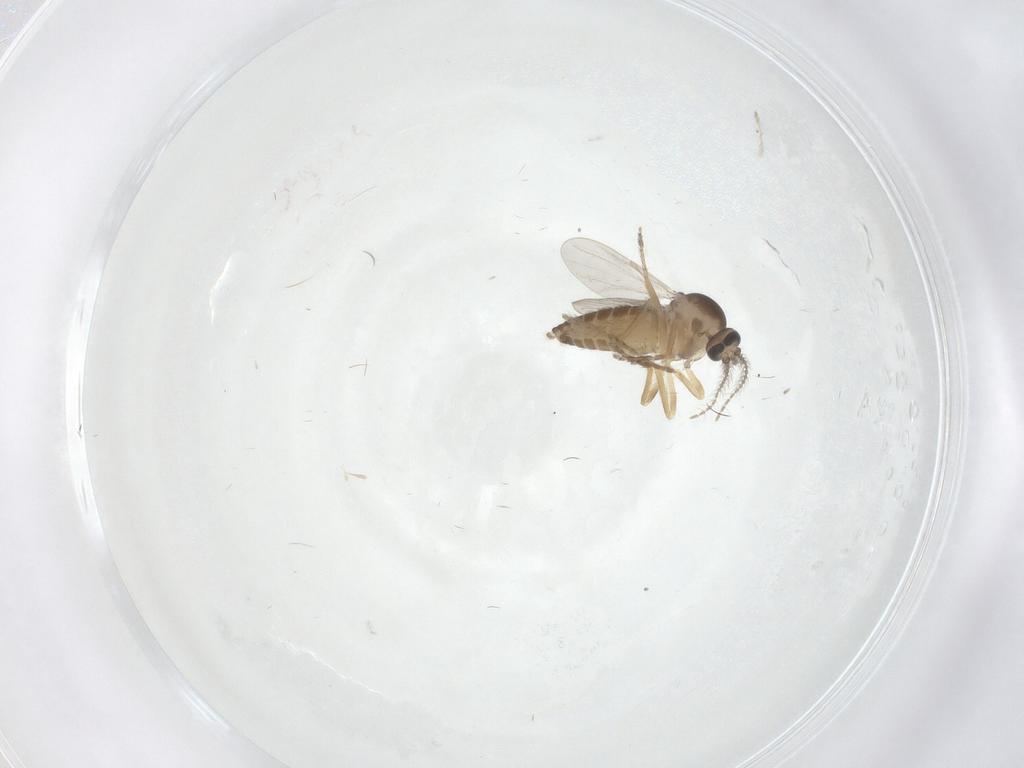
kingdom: Animalia
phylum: Arthropoda
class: Insecta
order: Diptera
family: Ceratopogonidae
